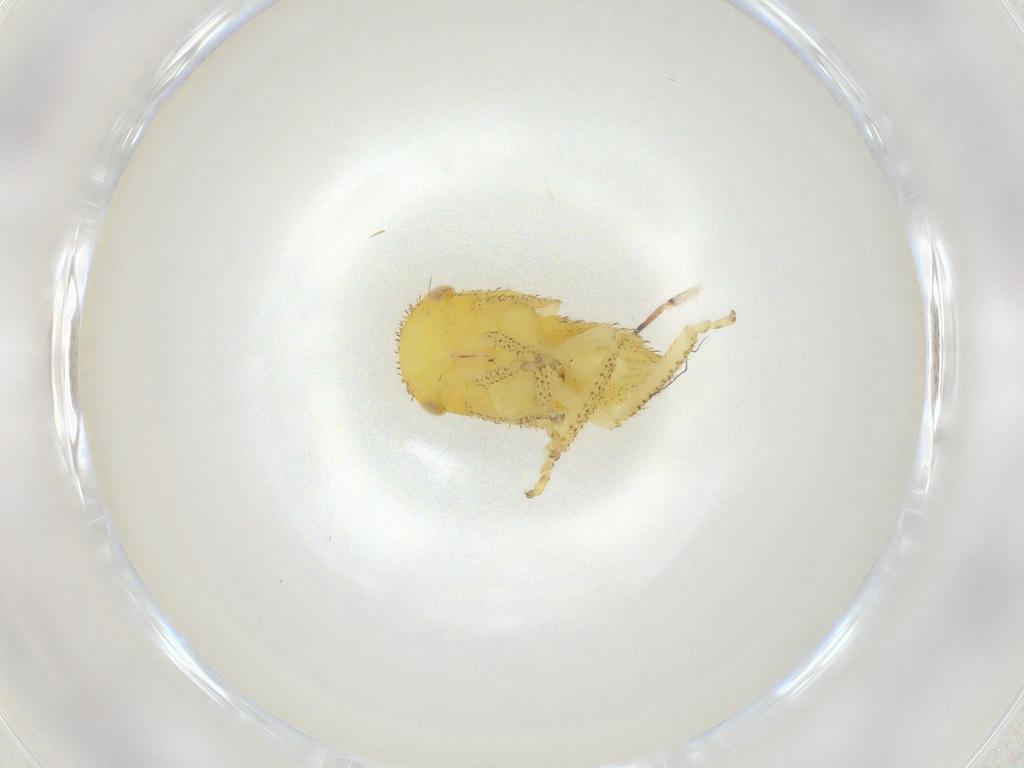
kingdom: Animalia
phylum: Arthropoda
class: Insecta
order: Hemiptera
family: Cicadellidae
